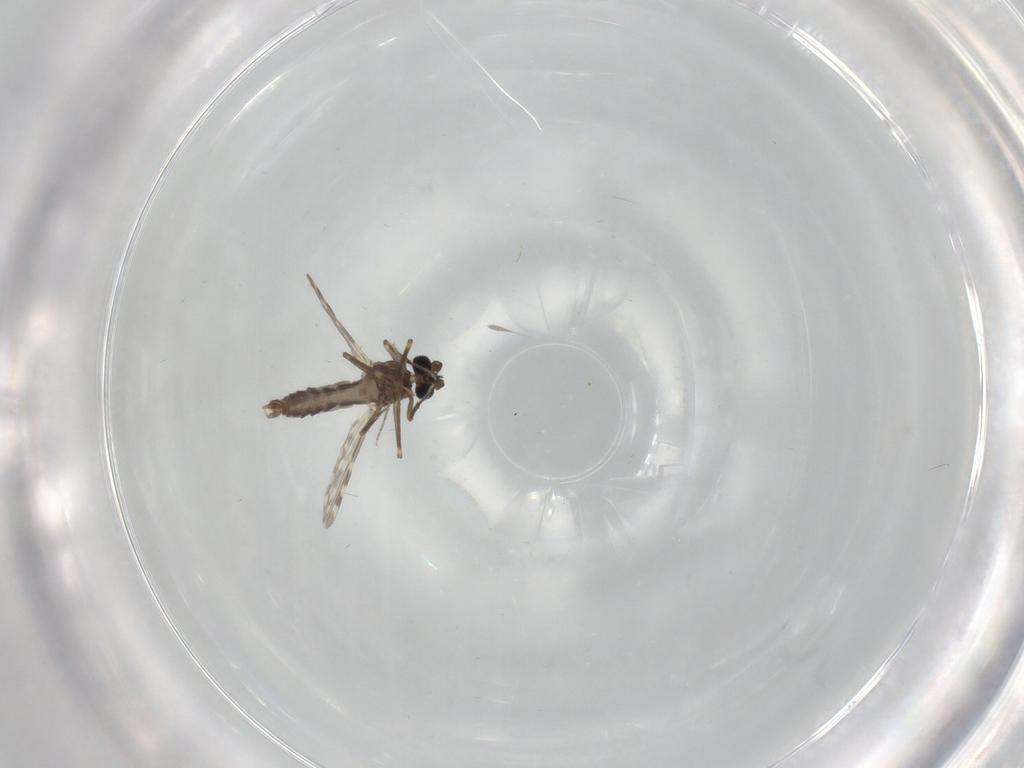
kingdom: Animalia
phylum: Arthropoda
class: Insecta
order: Diptera
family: Ceratopogonidae
